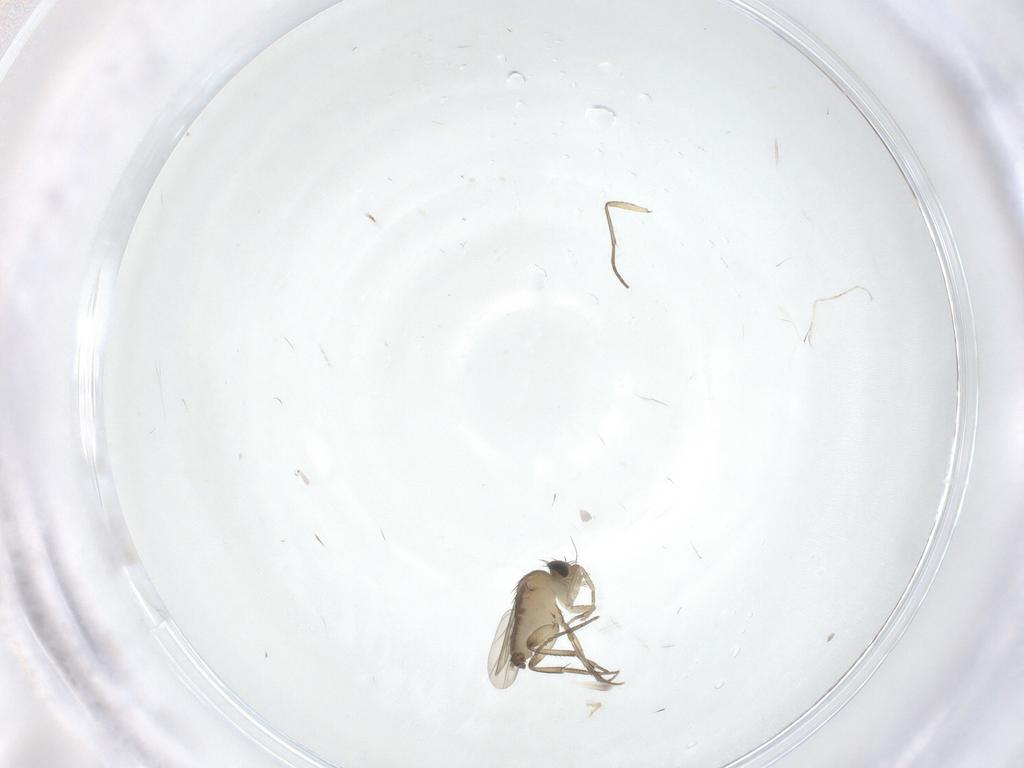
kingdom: Animalia
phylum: Arthropoda
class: Insecta
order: Diptera
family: Phoridae
